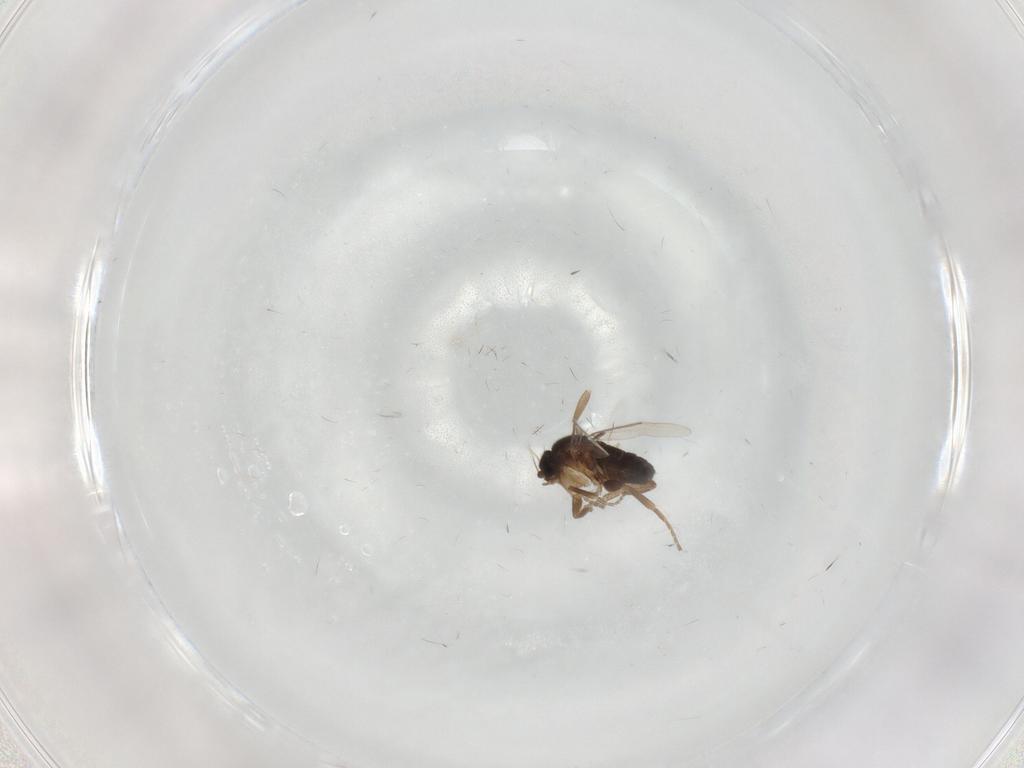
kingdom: Animalia
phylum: Arthropoda
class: Insecta
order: Diptera
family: Phoridae
